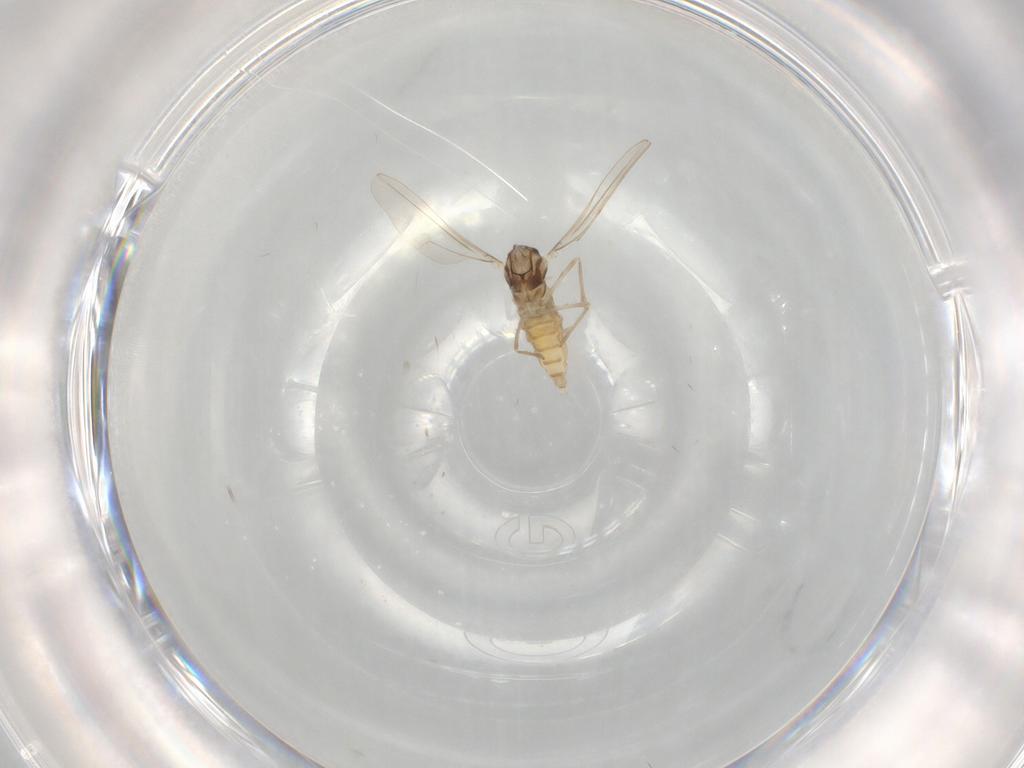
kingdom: Animalia
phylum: Arthropoda
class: Insecta
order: Diptera
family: Cecidomyiidae
